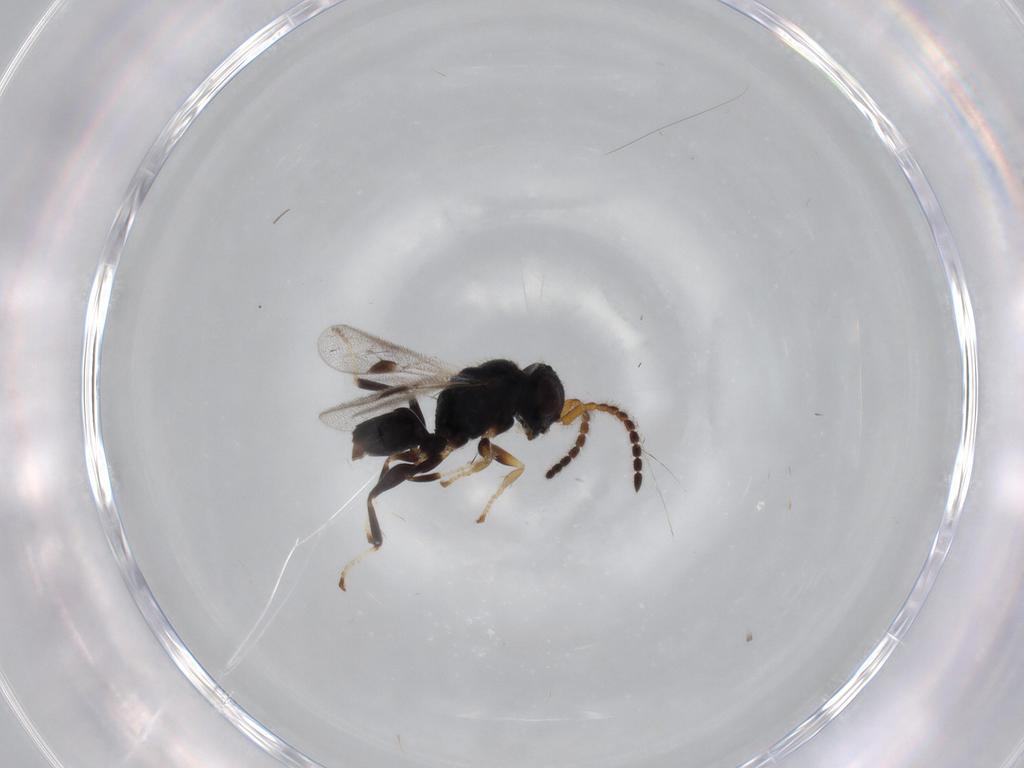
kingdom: Animalia
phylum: Arthropoda
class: Insecta
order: Hymenoptera
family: Dryinidae
